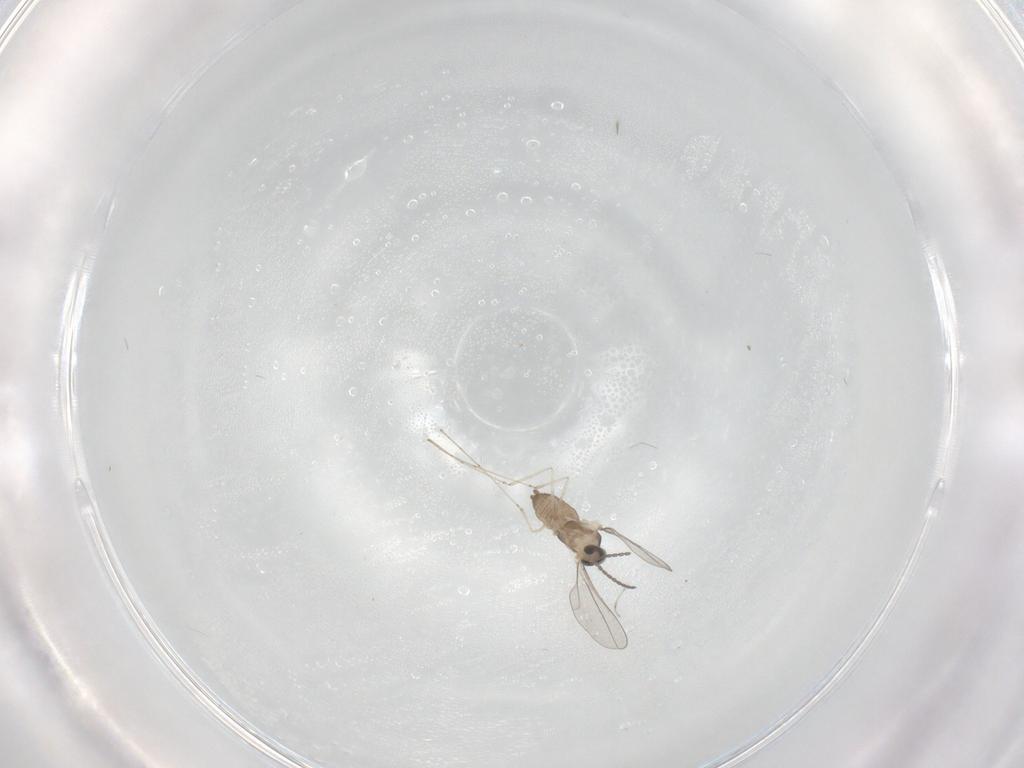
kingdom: Animalia
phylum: Arthropoda
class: Insecta
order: Diptera
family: Cecidomyiidae
